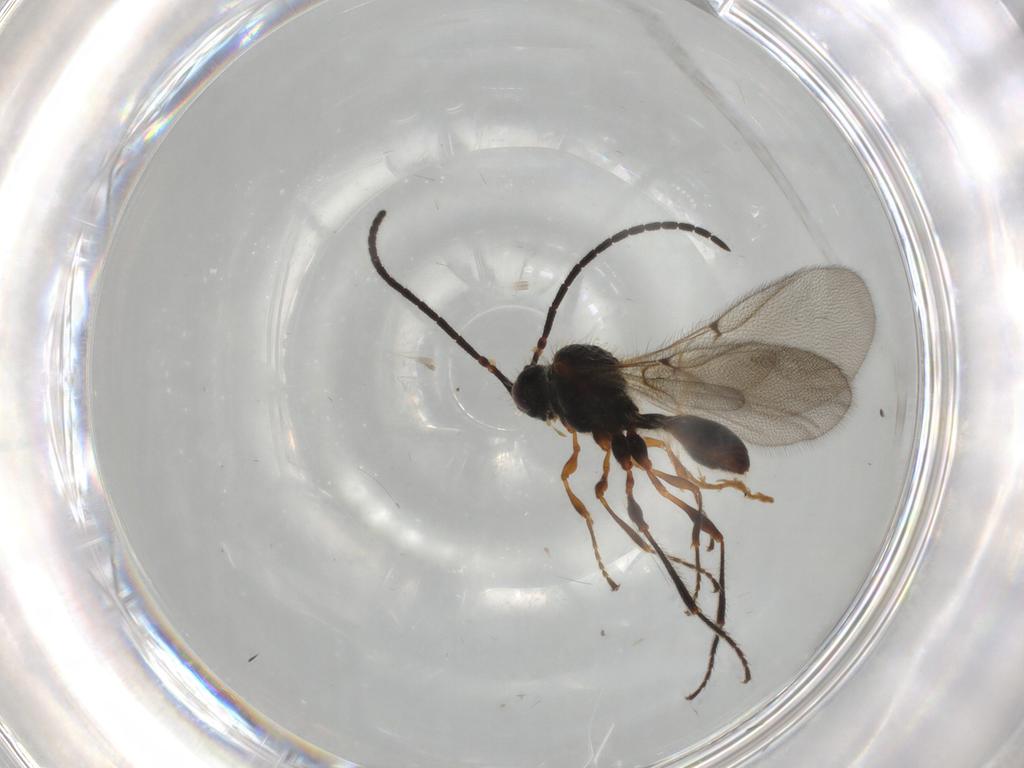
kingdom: Animalia
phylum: Arthropoda
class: Insecta
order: Hymenoptera
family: Diapriidae
